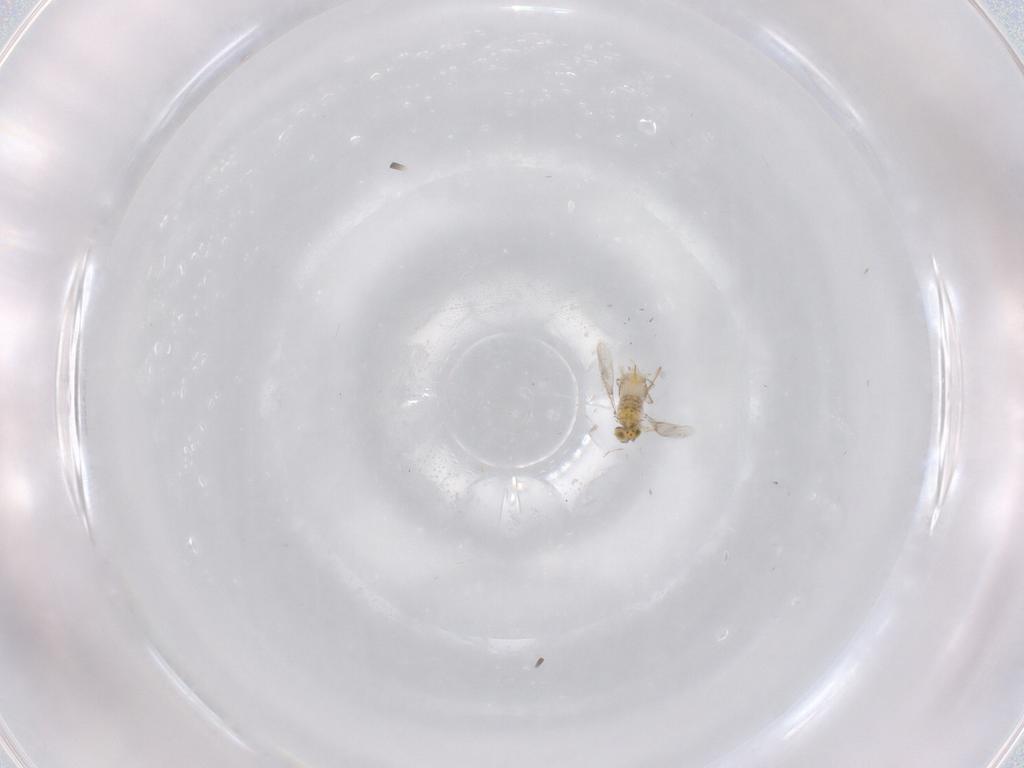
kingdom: Animalia
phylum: Arthropoda
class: Insecta
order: Hymenoptera
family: Aphelinidae
